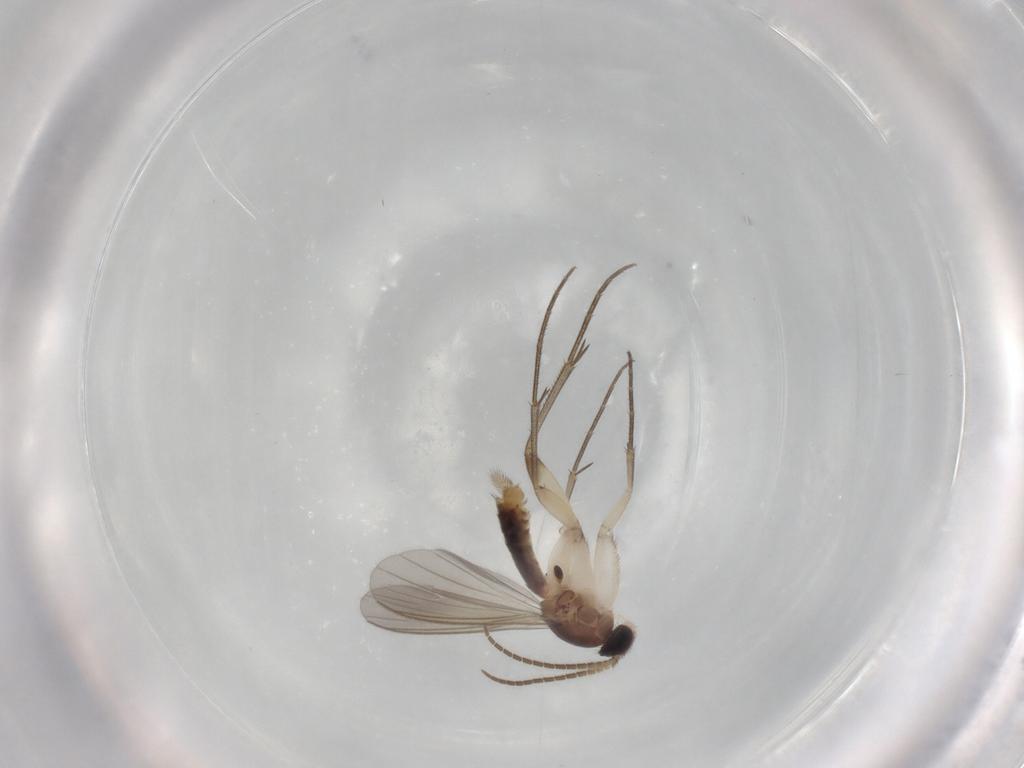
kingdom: Animalia
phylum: Arthropoda
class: Insecta
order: Diptera
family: Mycetophilidae
